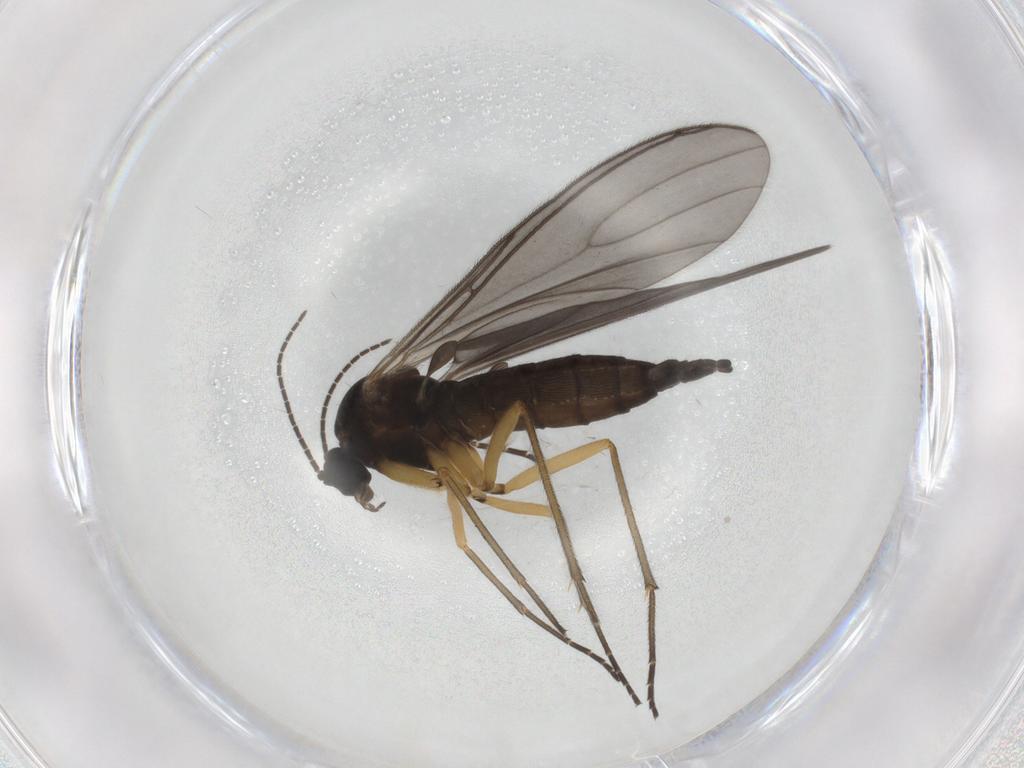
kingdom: Animalia
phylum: Arthropoda
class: Insecta
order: Diptera
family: Sciaridae
